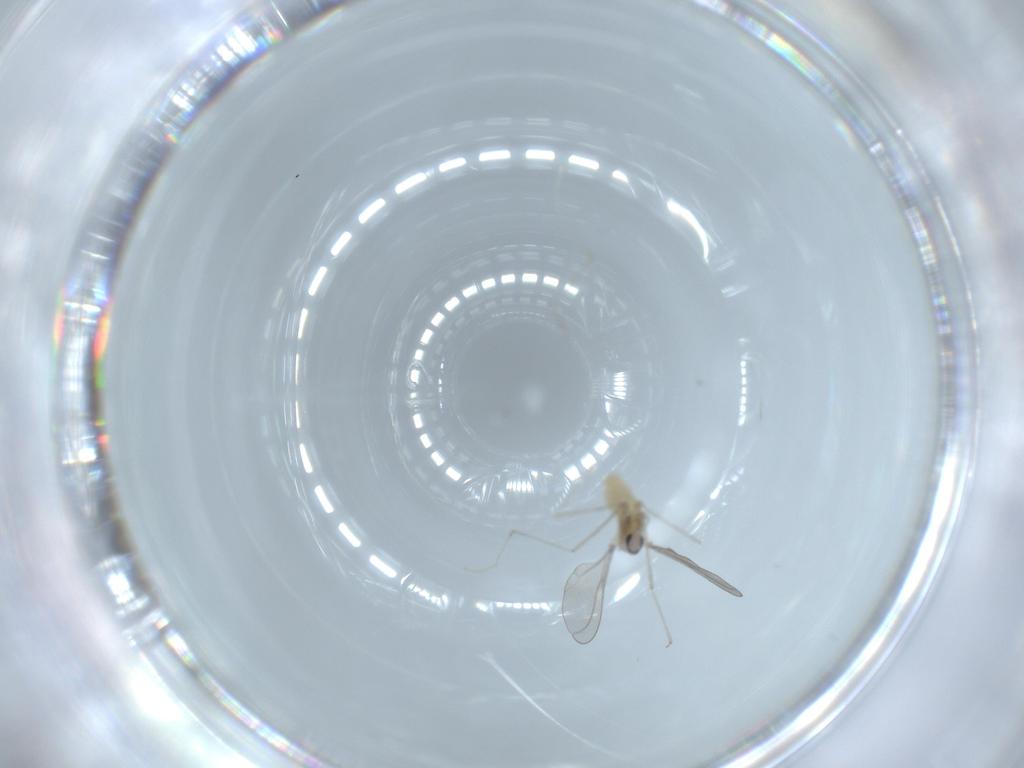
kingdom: Animalia
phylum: Arthropoda
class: Insecta
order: Diptera
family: Cecidomyiidae
